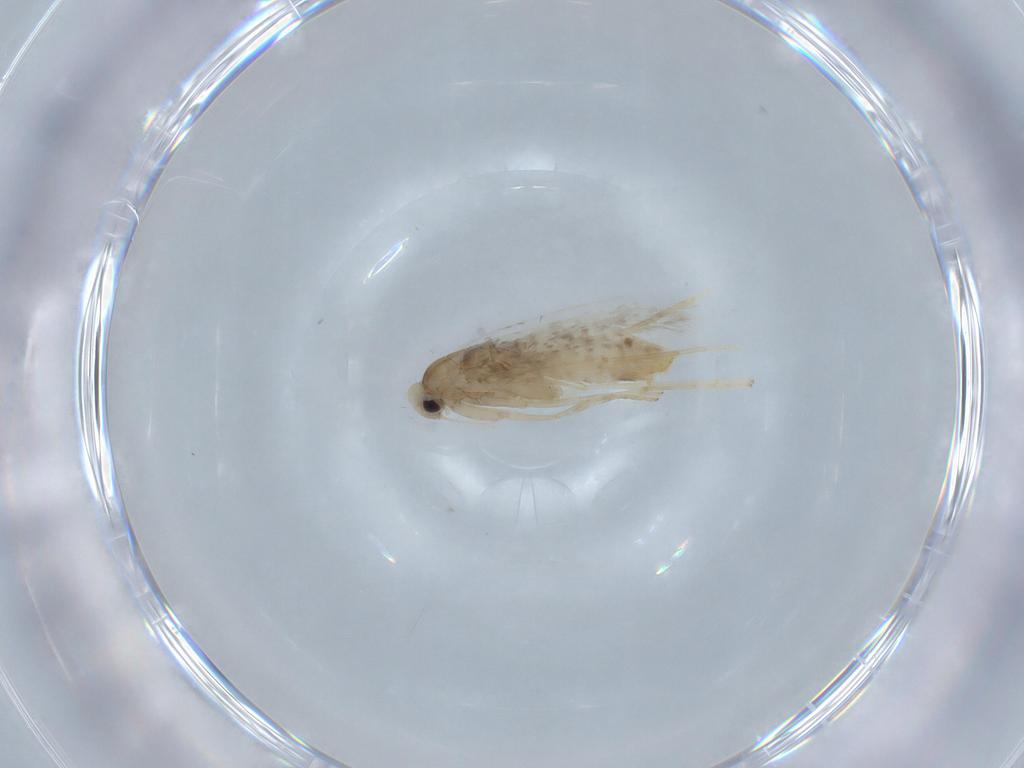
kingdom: Animalia
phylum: Arthropoda
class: Insecta
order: Lepidoptera
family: Gracillariidae
